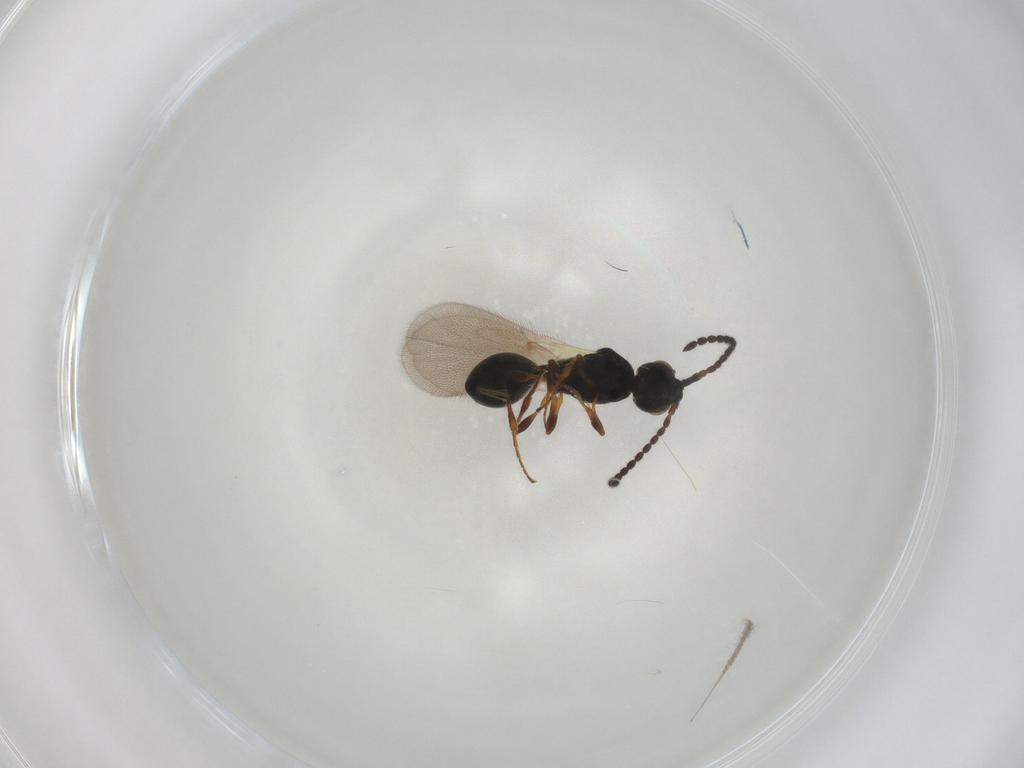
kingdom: Animalia
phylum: Arthropoda
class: Insecta
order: Hymenoptera
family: Diapriidae
